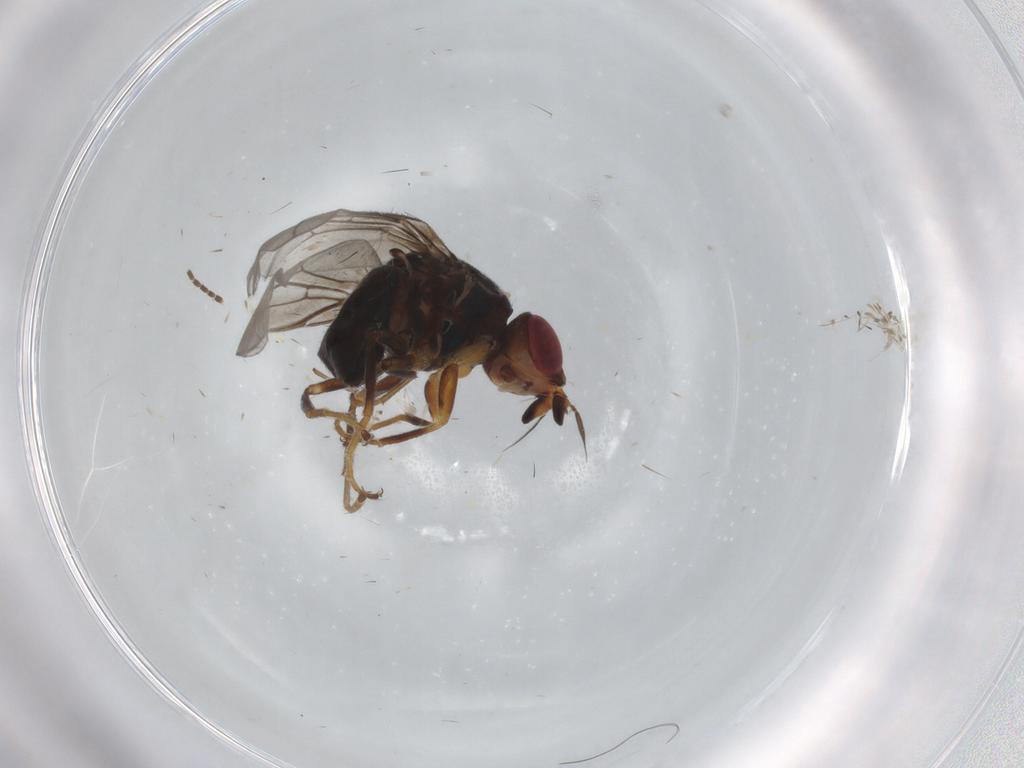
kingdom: Animalia
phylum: Arthropoda
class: Insecta
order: Diptera
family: Chloropidae
